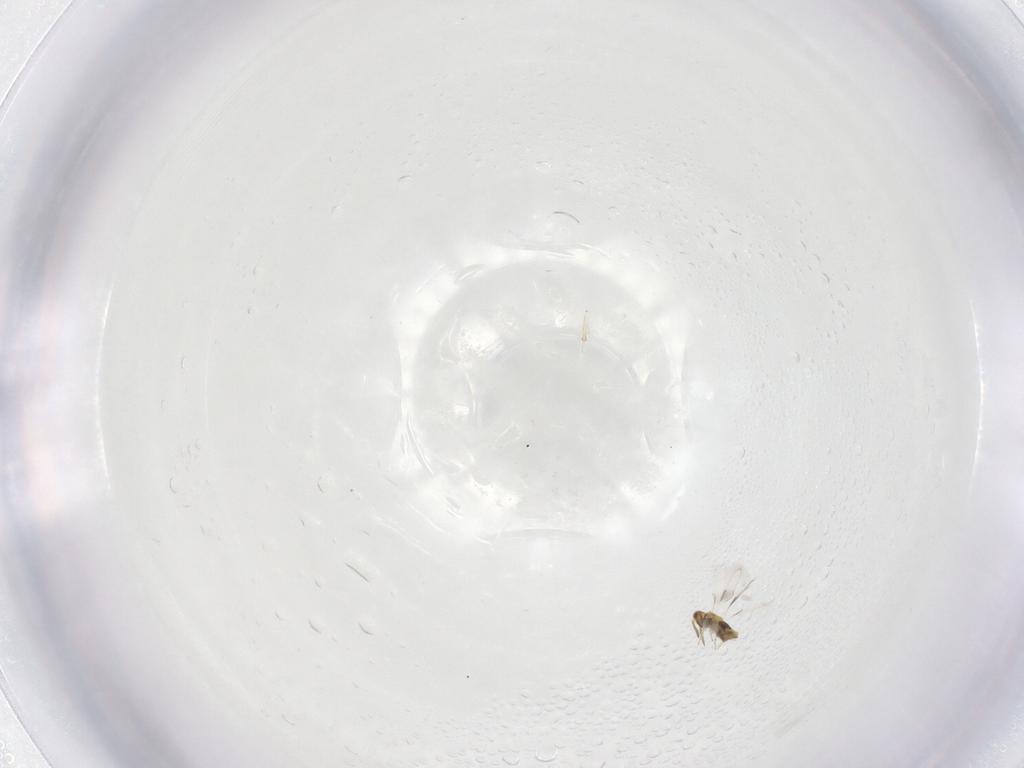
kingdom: Animalia
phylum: Arthropoda
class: Insecta
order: Hymenoptera
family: Aphelinidae
